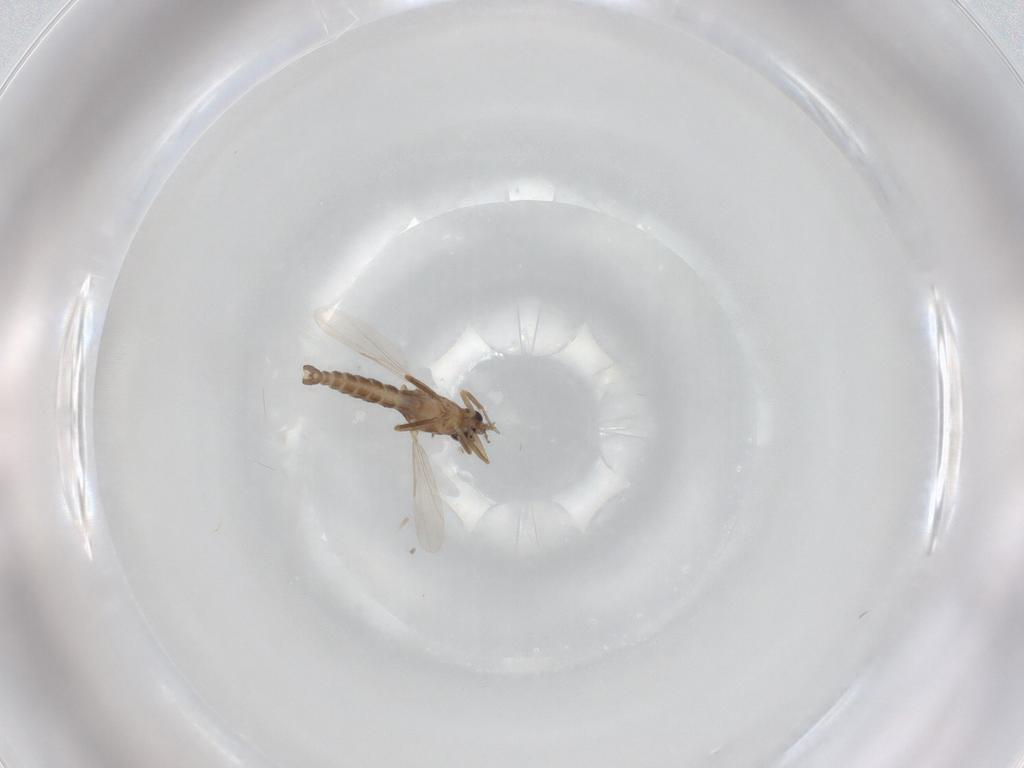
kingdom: Animalia
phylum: Arthropoda
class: Insecta
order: Diptera
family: Ceratopogonidae
